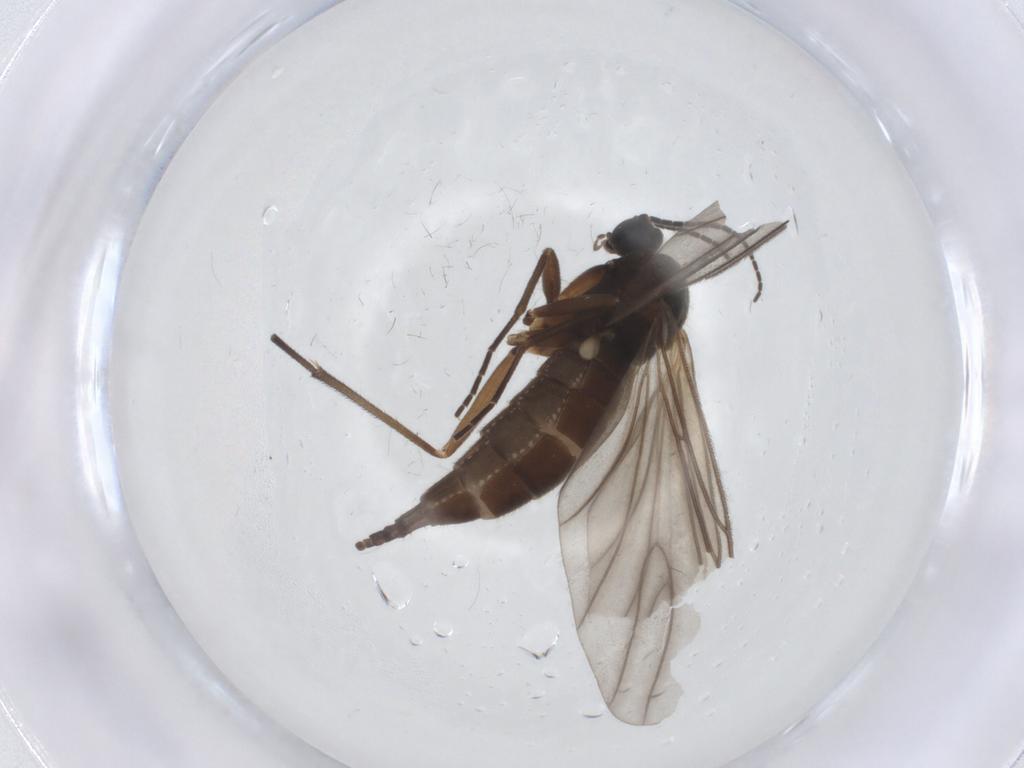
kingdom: Animalia
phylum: Arthropoda
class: Insecta
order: Diptera
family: Sciaridae
